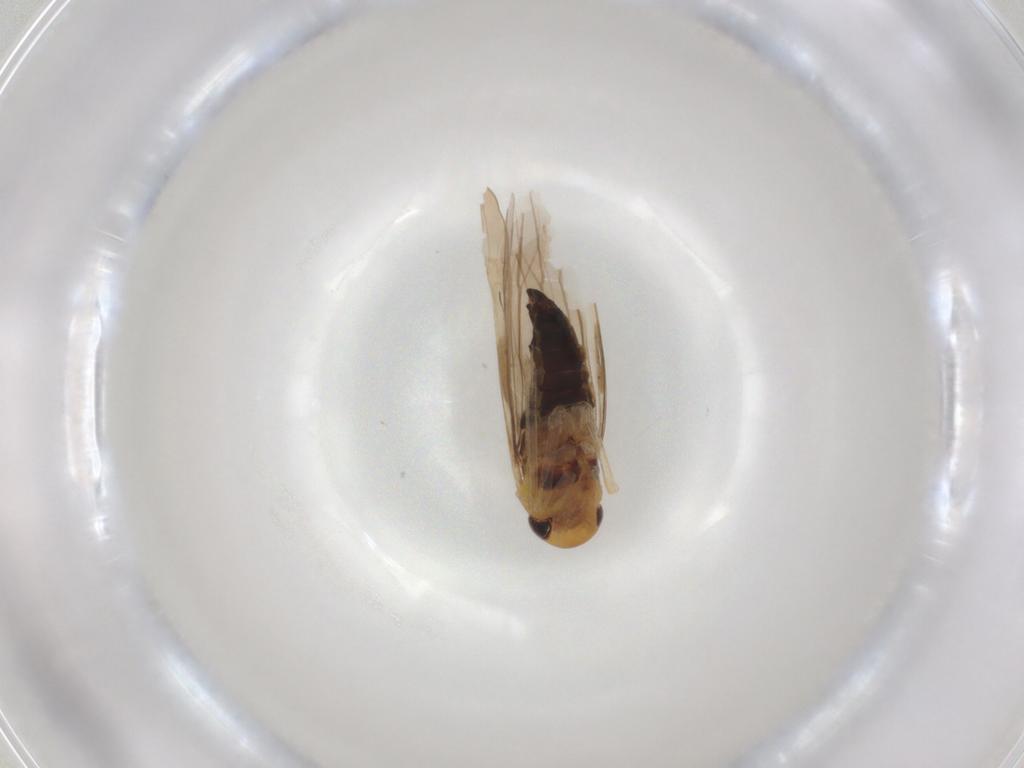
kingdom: Animalia
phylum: Arthropoda
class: Insecta
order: Hemiptera
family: Cicadellidae
